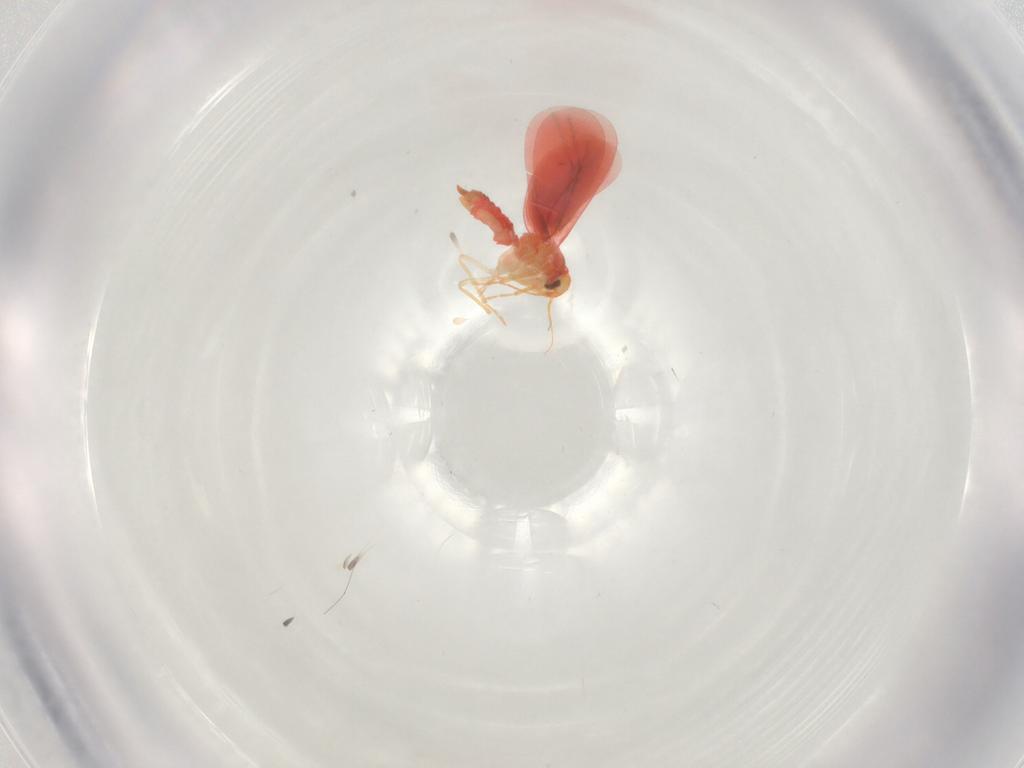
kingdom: Animalia
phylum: Arthropoda
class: Insecta
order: Hemiptera
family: Aleyrodidae
